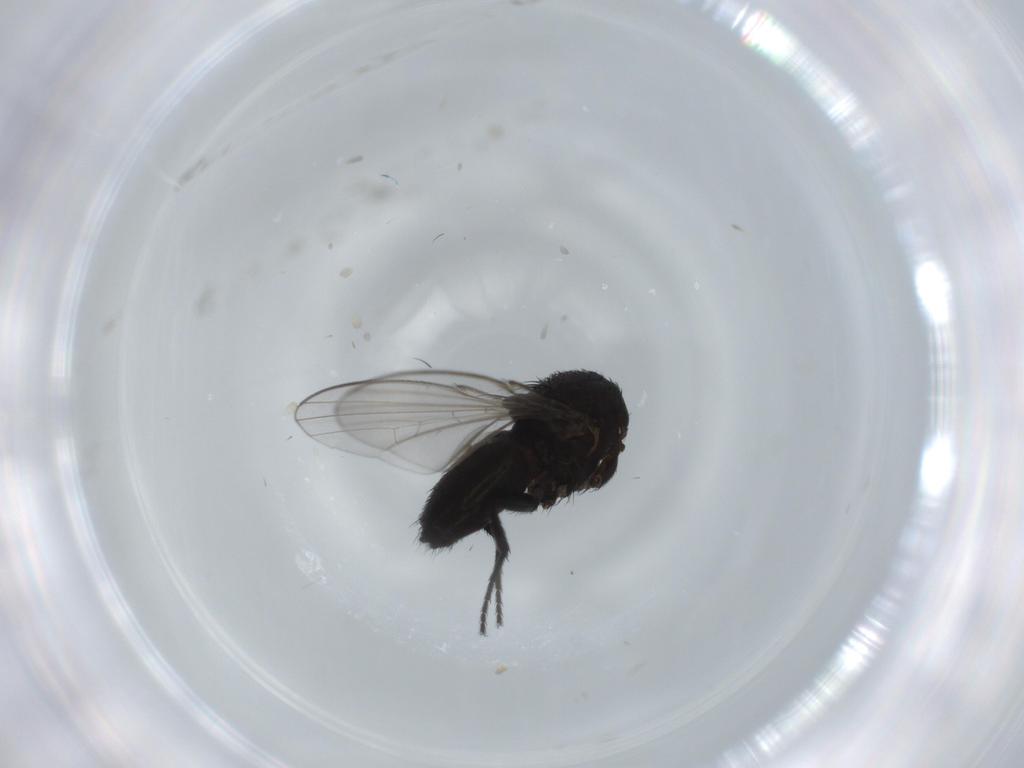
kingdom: Animalia
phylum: Arthropoda
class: Insecta
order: Diptera
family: Milichiidae
